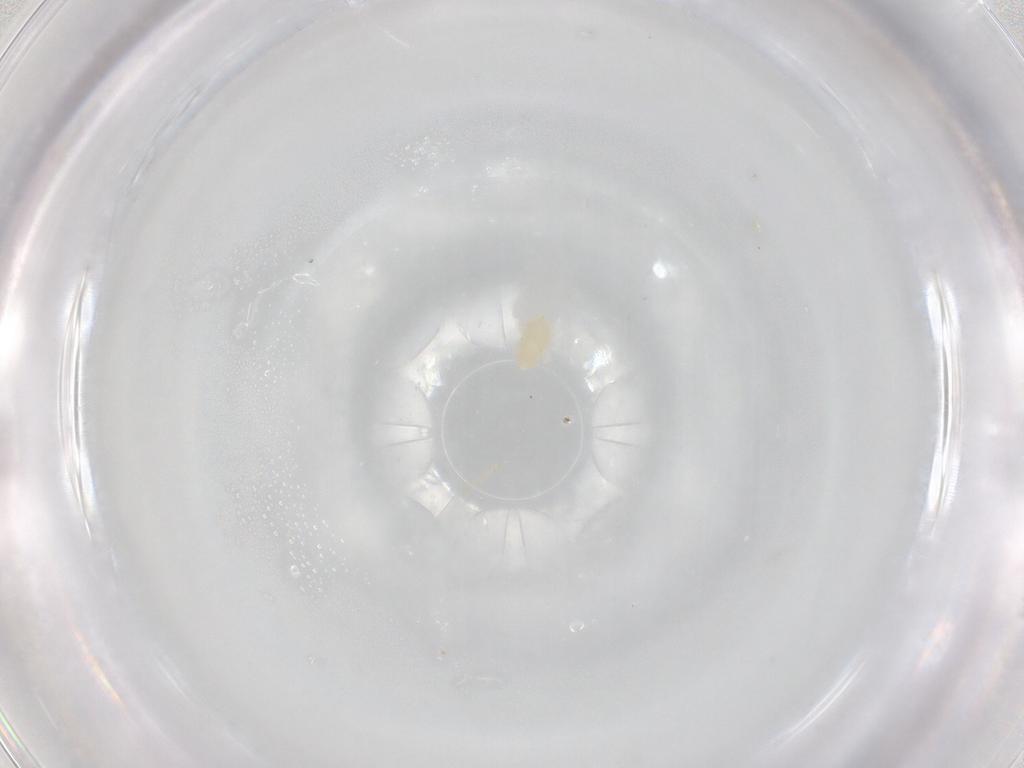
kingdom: Animalia
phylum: Arthropoda
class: Arachnida
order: Trombidiformes
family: Eupodidae
